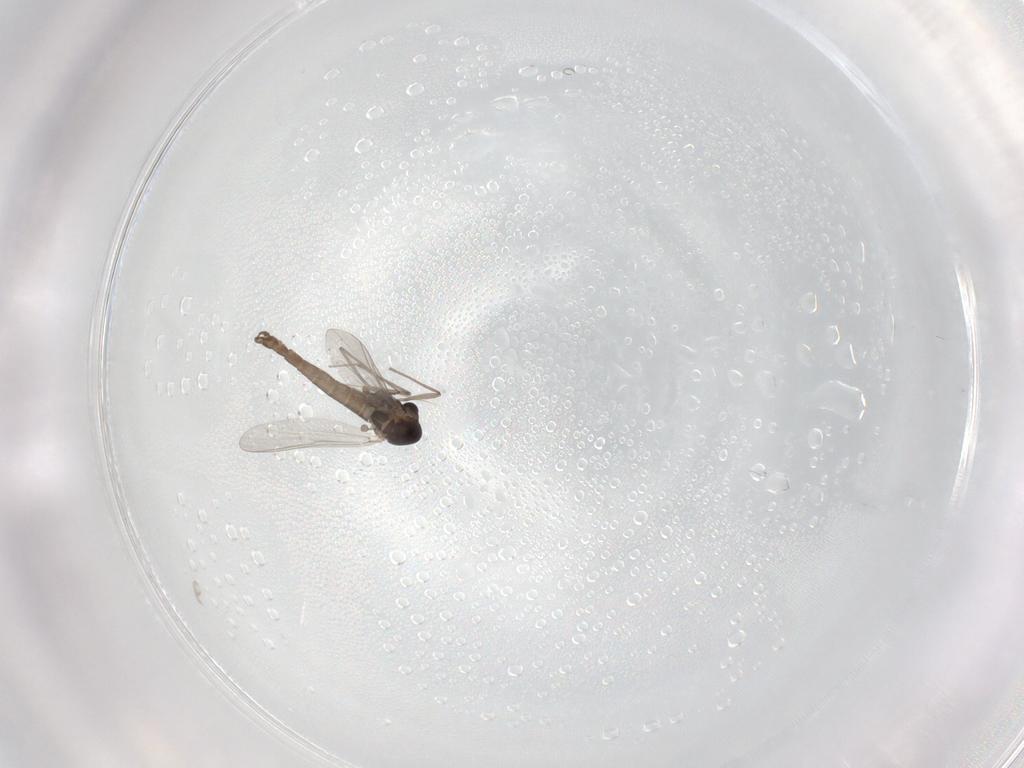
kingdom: Animalia
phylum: Arthropoda
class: Insecta
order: Diptera
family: Chironomidae
